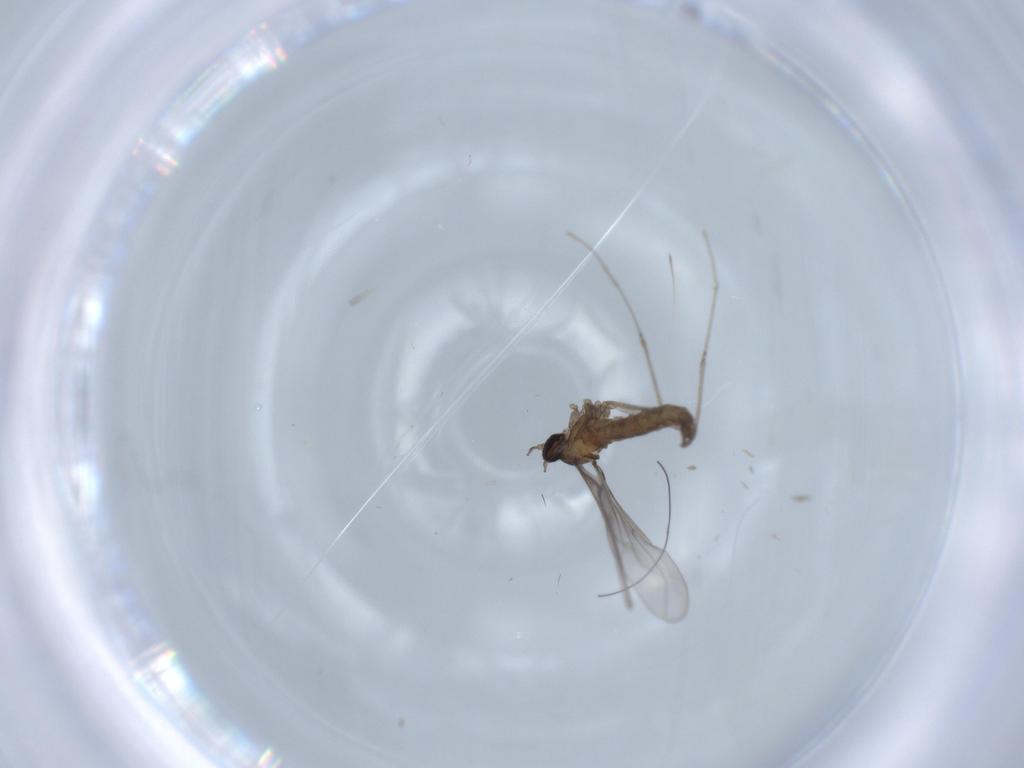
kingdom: Animalia
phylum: Arthropoda
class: Insecta
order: Diptera
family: Cecidomyiidae
